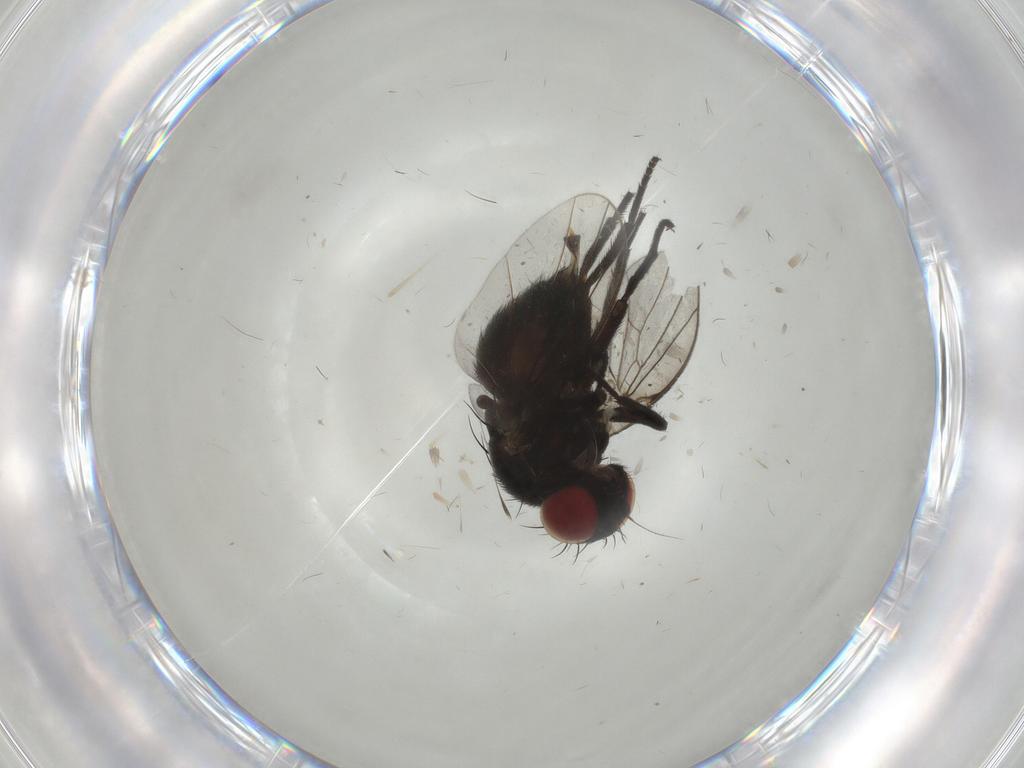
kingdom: Animalia
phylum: Arthropoda
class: Insecta
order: Diptera
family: Agromyzidae
